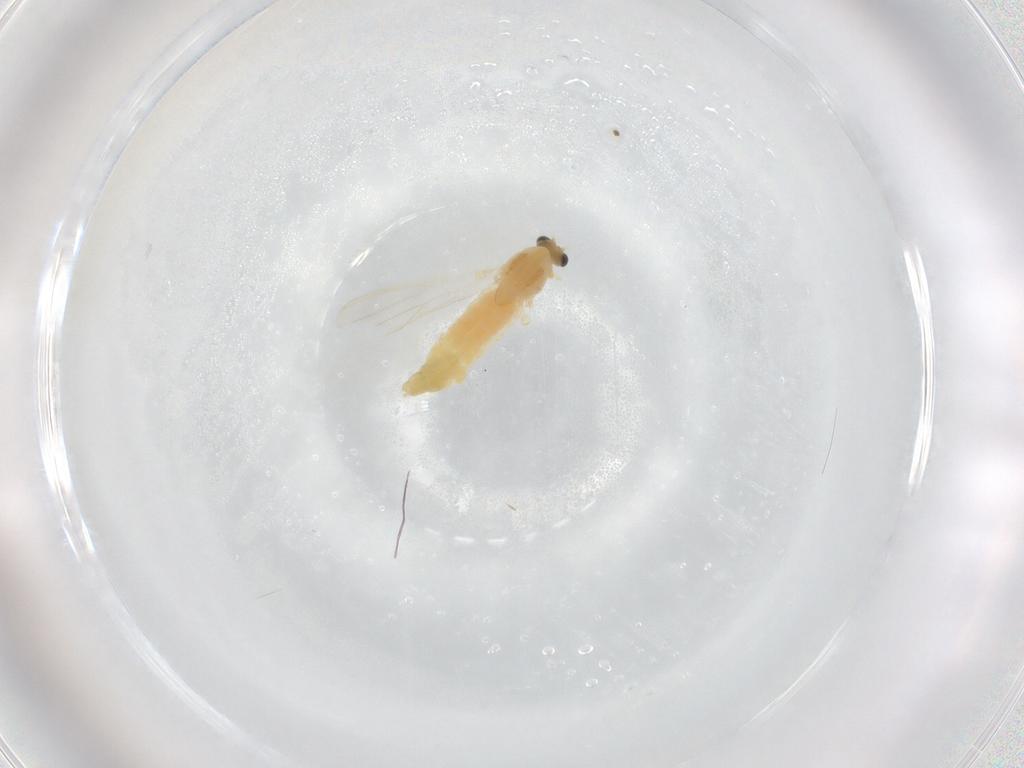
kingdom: Animalia
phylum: Arthropoda
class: Insecta
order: Diptera
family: Chironomidae
